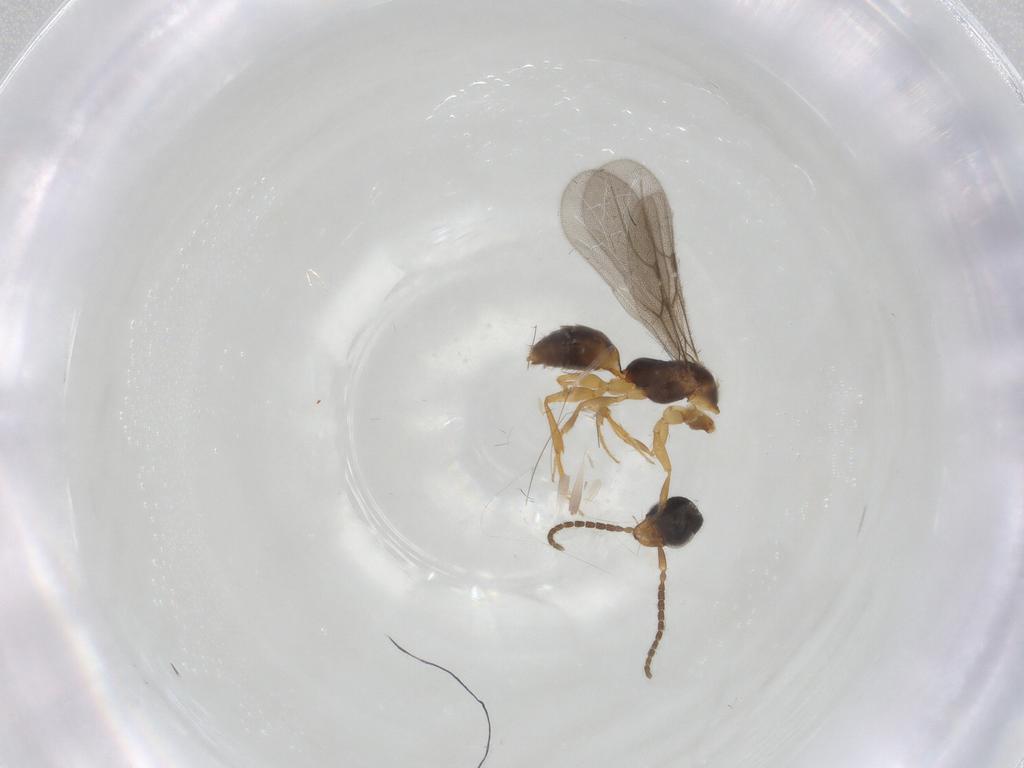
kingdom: Animalia
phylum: Arthropoda
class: Insecta
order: Hymenoptera
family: Bethylidae
